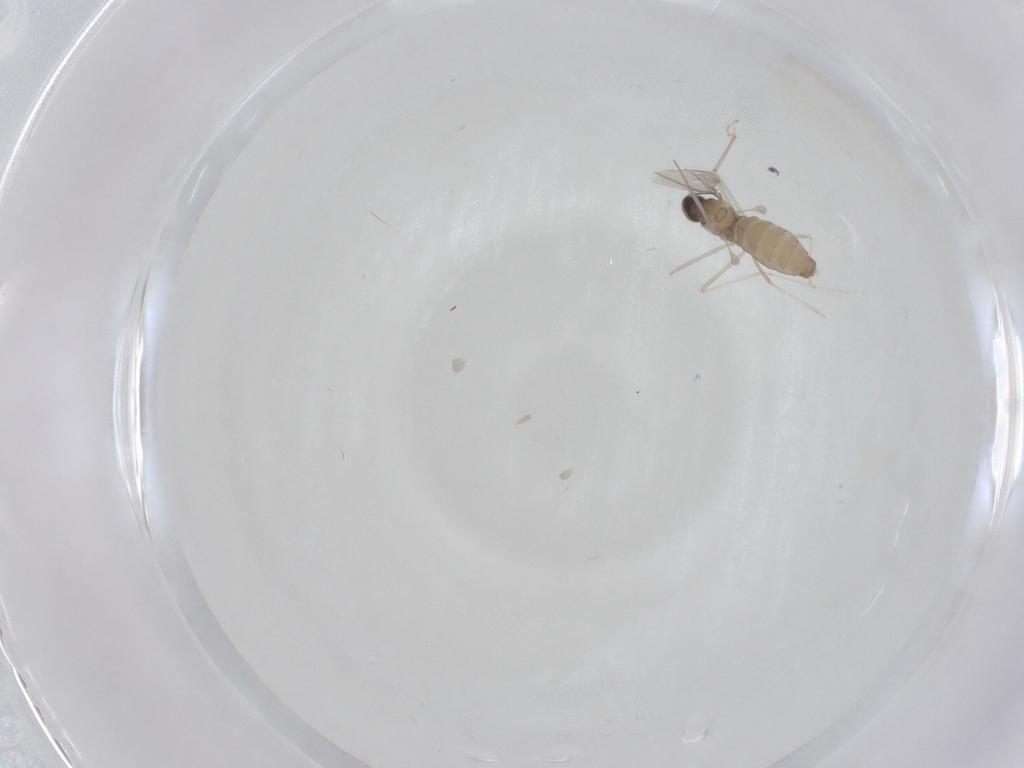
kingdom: Animalia
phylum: Arthropoda
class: Insecta
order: Diptera
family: Cecidomyiidae
